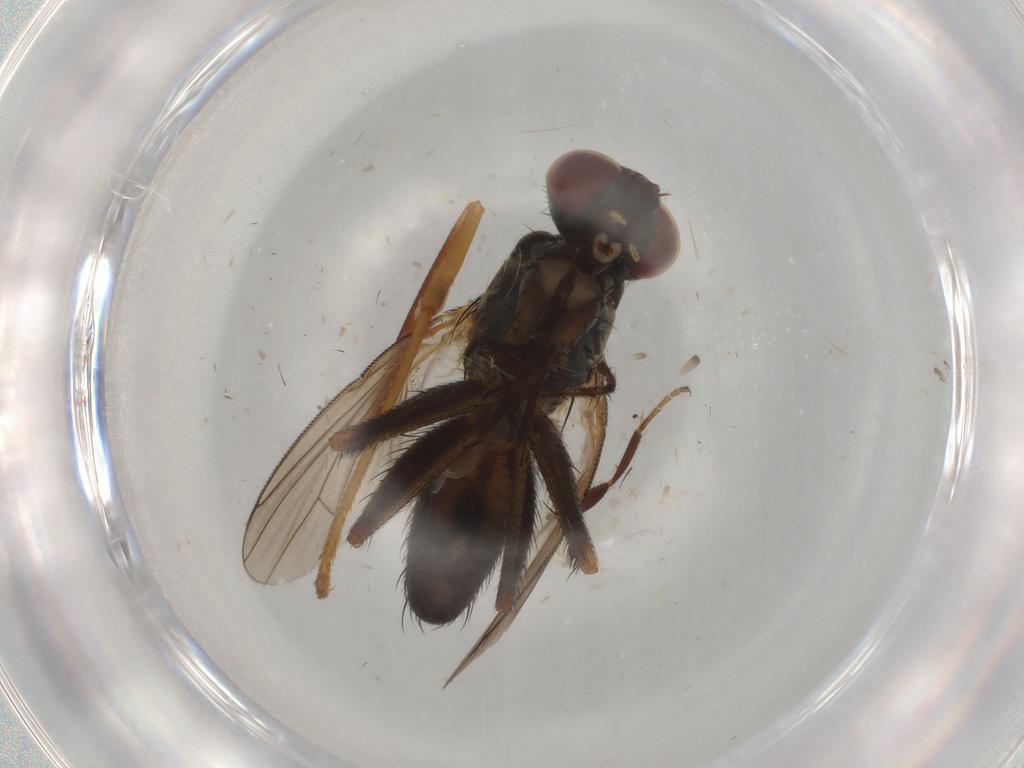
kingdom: Animalia
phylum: Arthropoda
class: Insecta
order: Diptera
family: Muscidae
